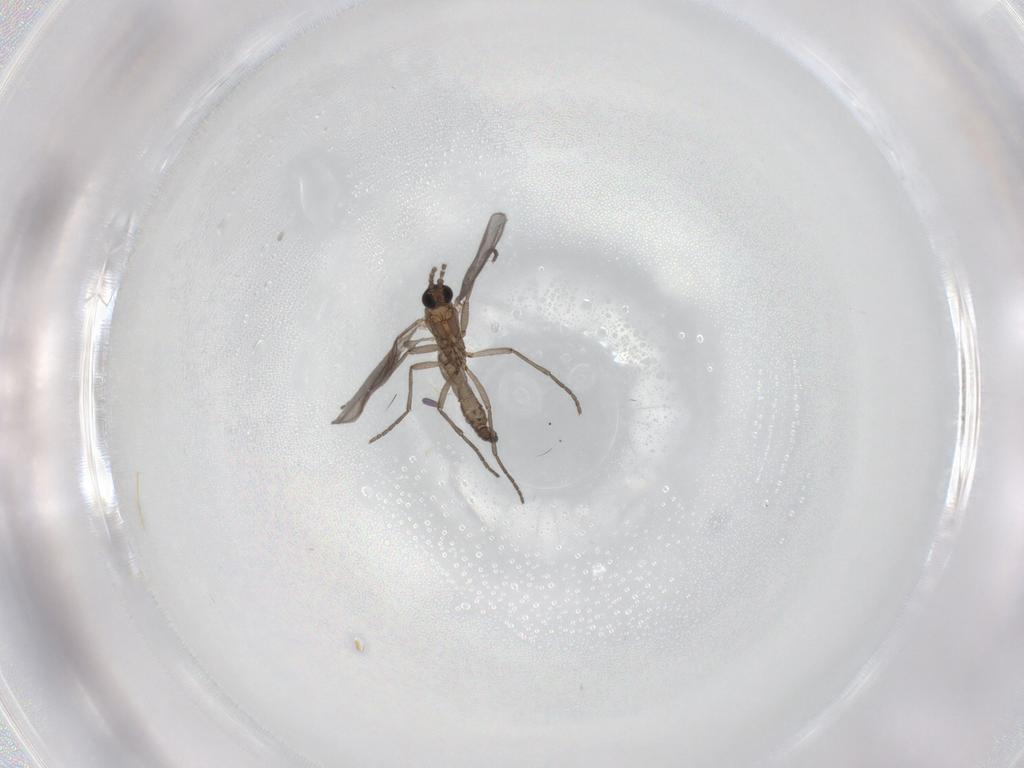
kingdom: Animalia
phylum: Arthropoda
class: Insecta
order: Diptera
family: Sciaridae
